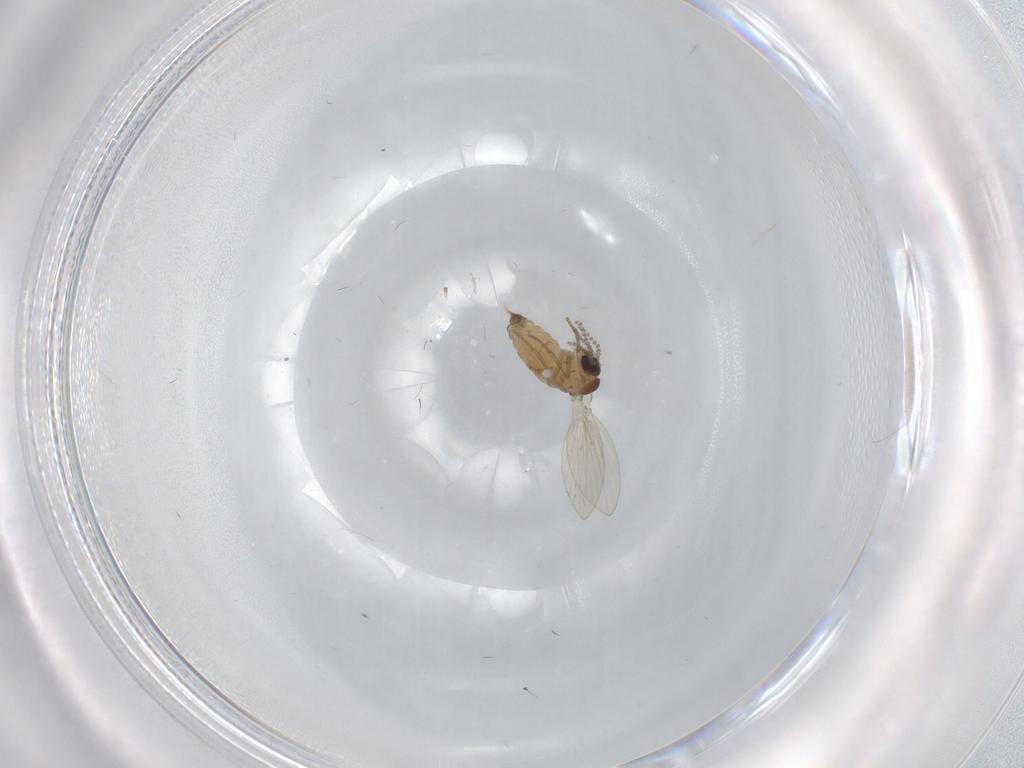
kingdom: Animalia
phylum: Arthropoda
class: Insecta
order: Diptera
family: Psychodidae
